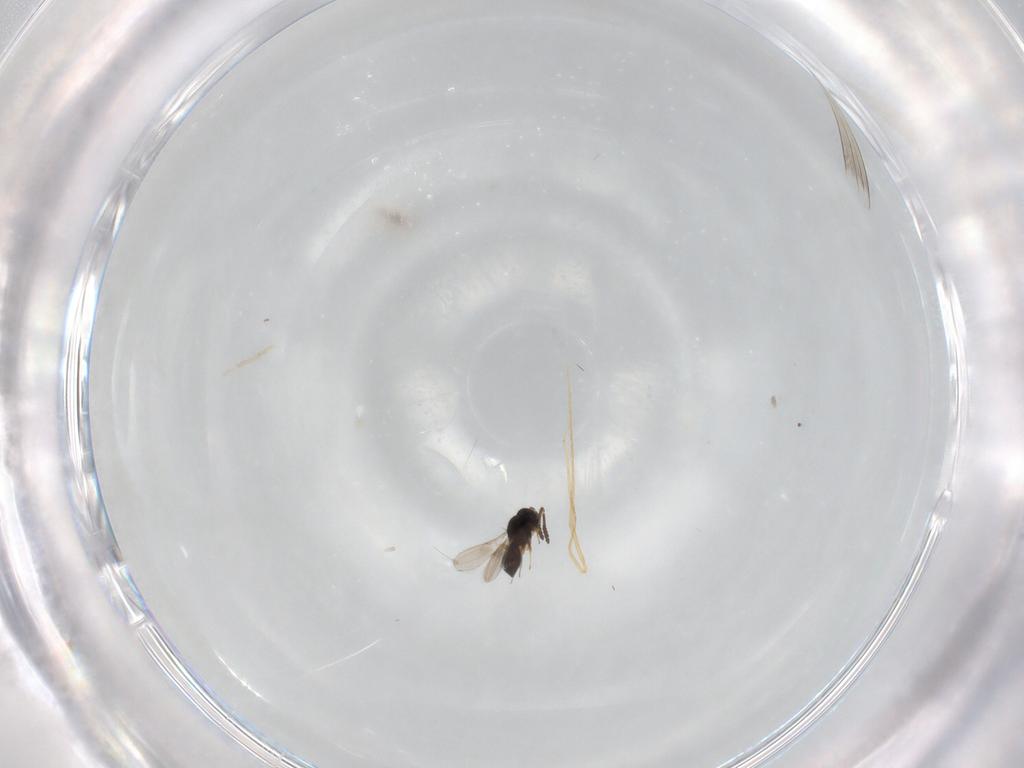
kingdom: Animalia
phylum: Arthropoda
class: Insecta
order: Hymenoptera
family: Scelionidae
